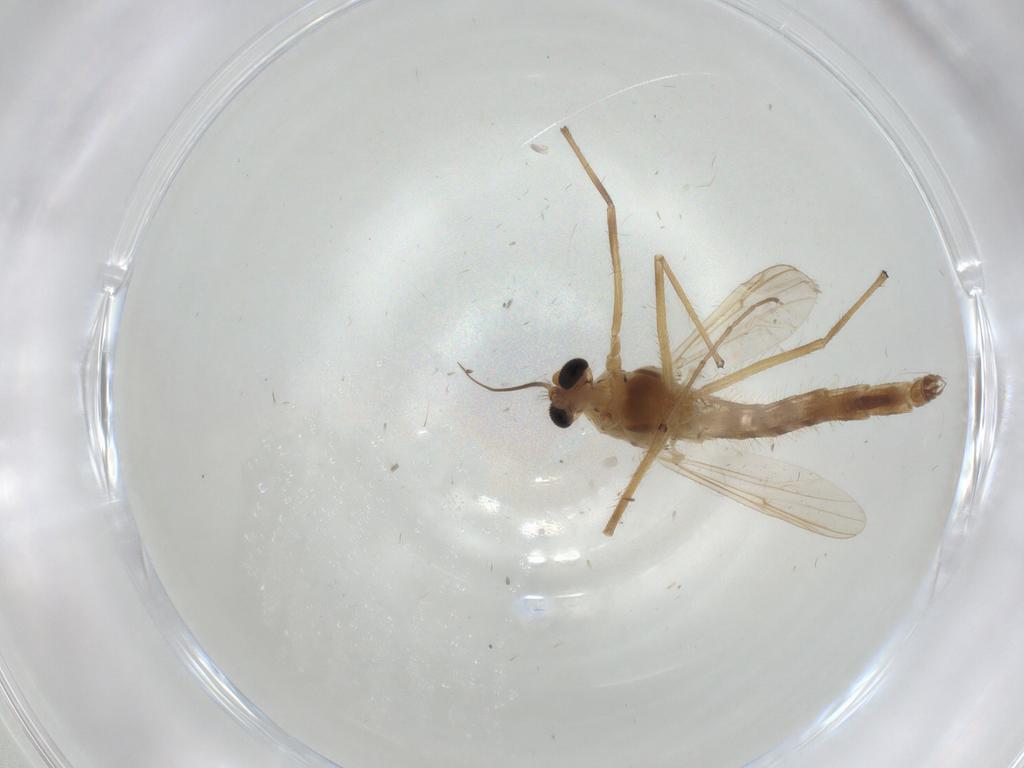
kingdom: Animalia
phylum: Arthropoda
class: Insecta
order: Diptera
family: Chironomidae
